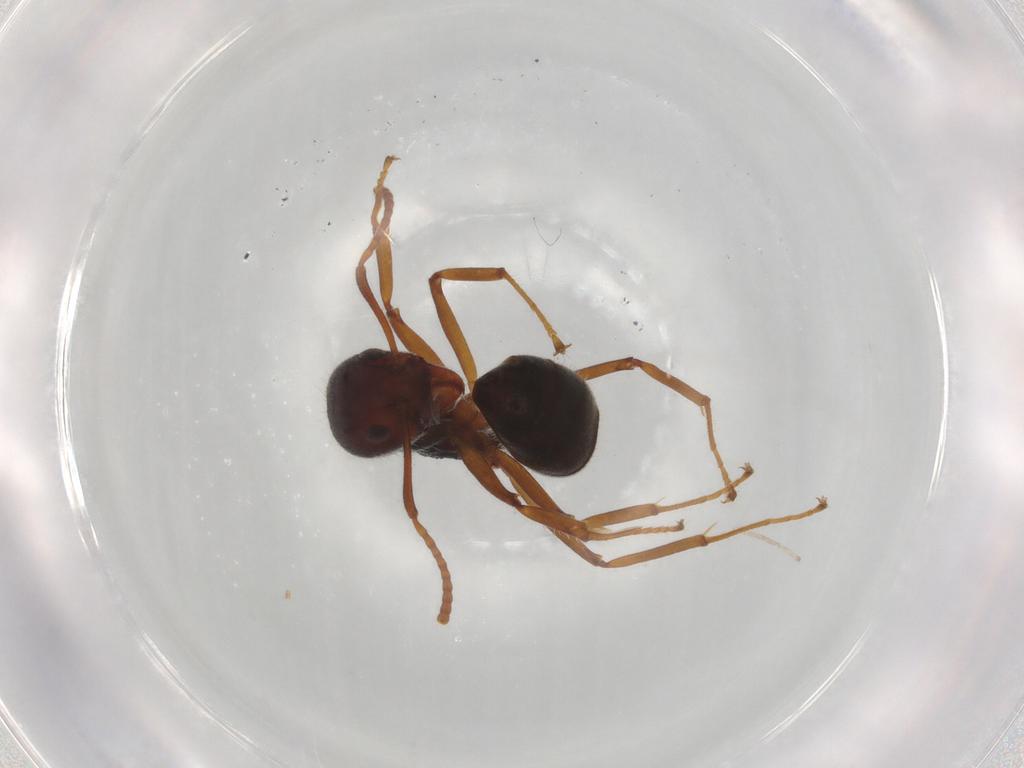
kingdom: Animalia
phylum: Arthropoda
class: Insecta
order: Hymenoptera
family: Formicidae
